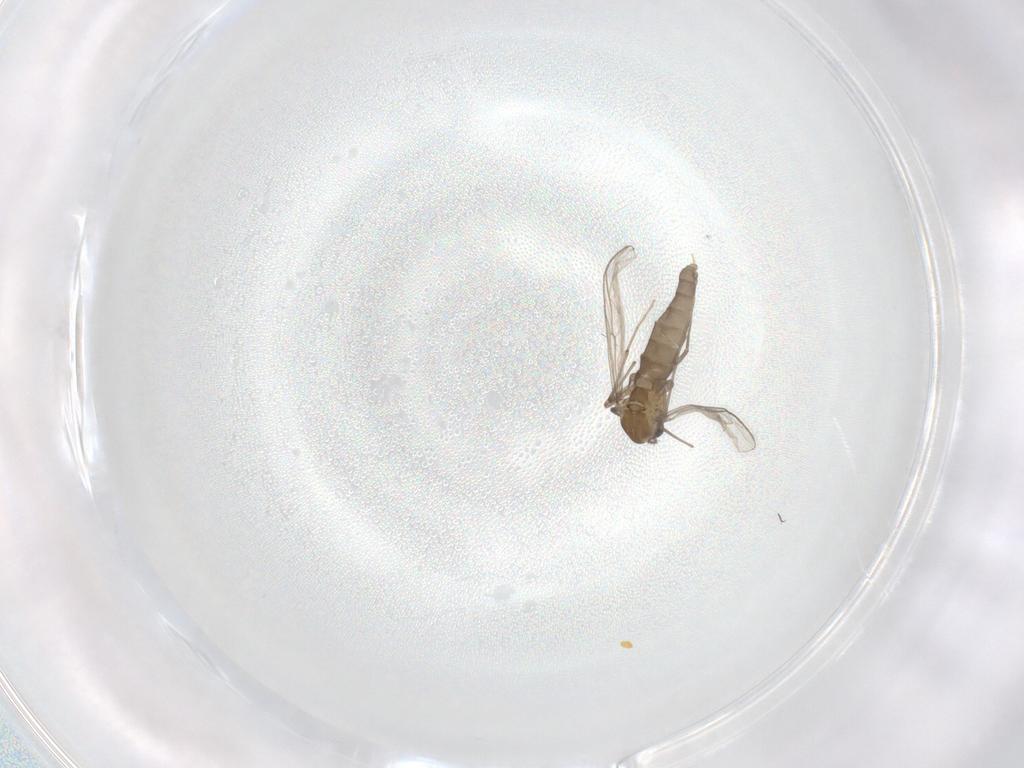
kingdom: Animalia
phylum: Arthropoda
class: Insecta
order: Diptera
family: Chironomidae
